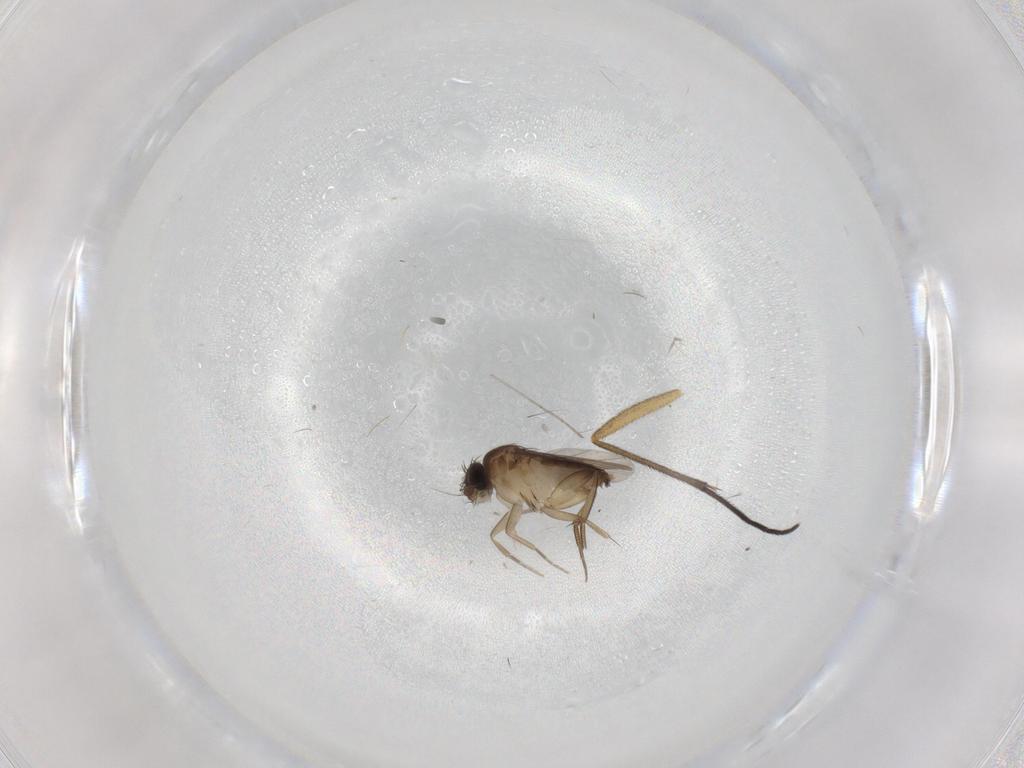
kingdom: Animalia
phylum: Arthropoda
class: Insecta
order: Diptera
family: Phoridae
